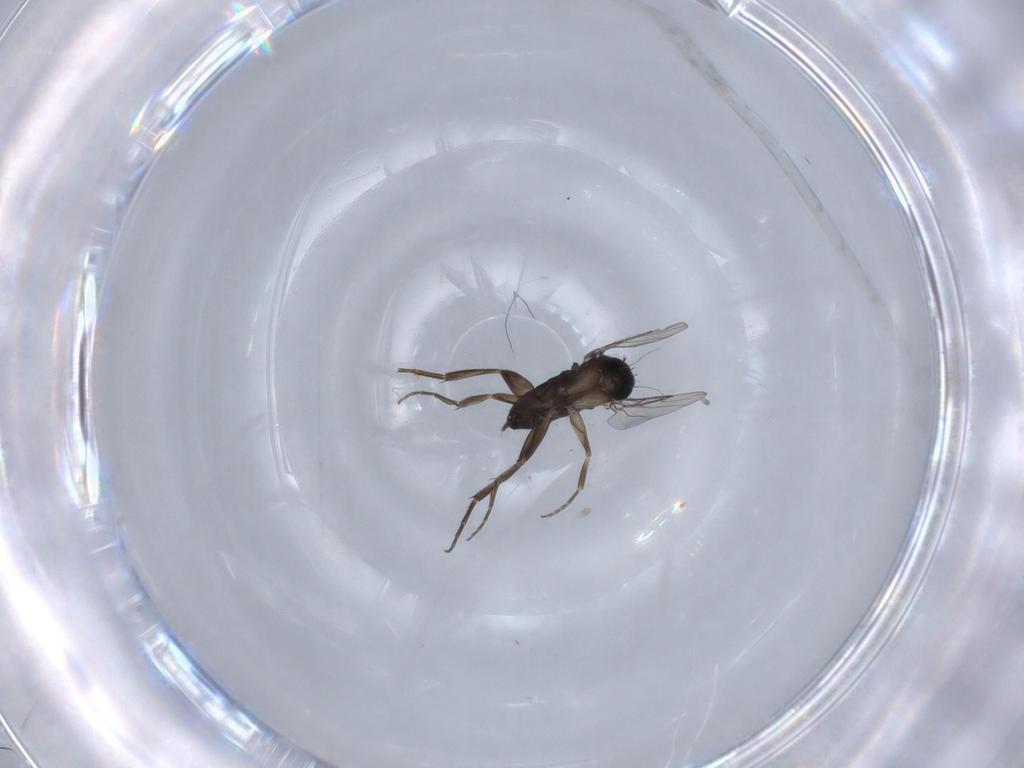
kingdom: Animalia
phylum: Arthropoda
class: Insecta
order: Diptera
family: Phoridae
